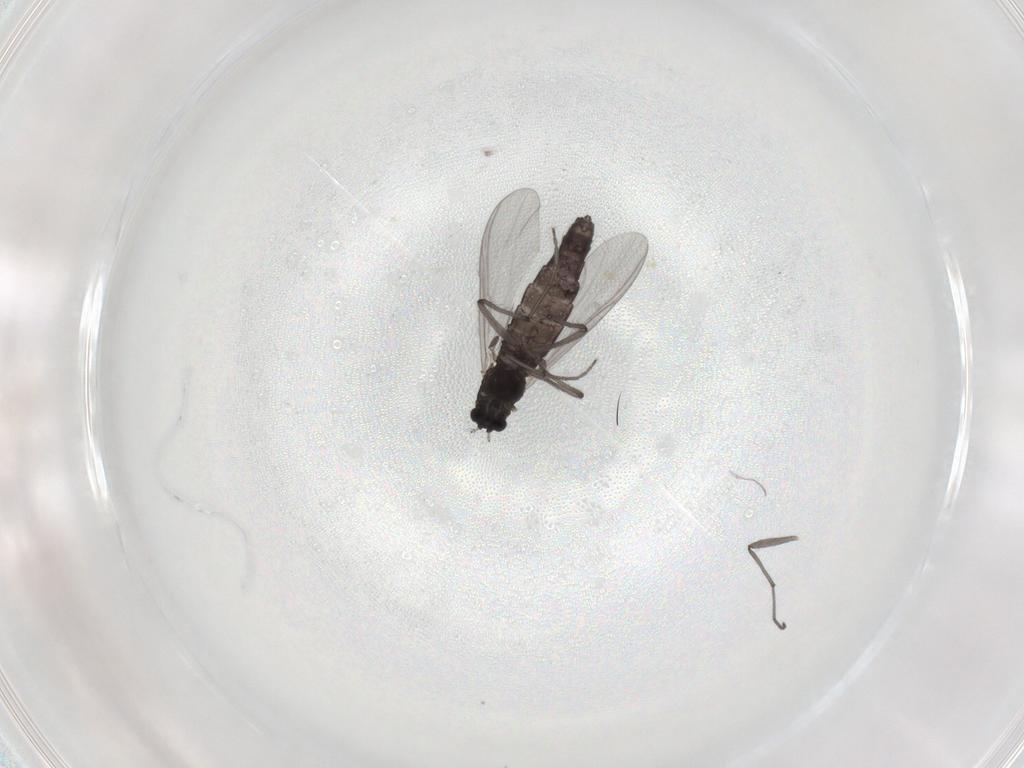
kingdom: Animalia
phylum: Arthropoda
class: Insecta
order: Diptera
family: Chironomidae
